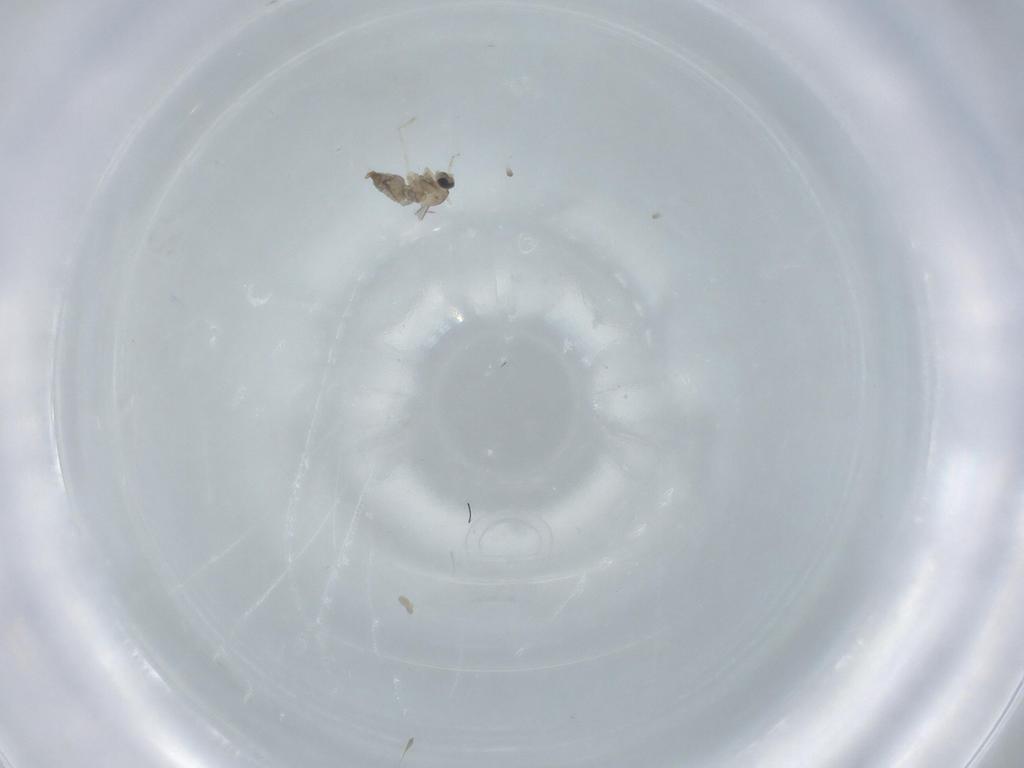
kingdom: Animalia
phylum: Arthropoda
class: Insecta
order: Diptera
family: Cecidomyiidae
